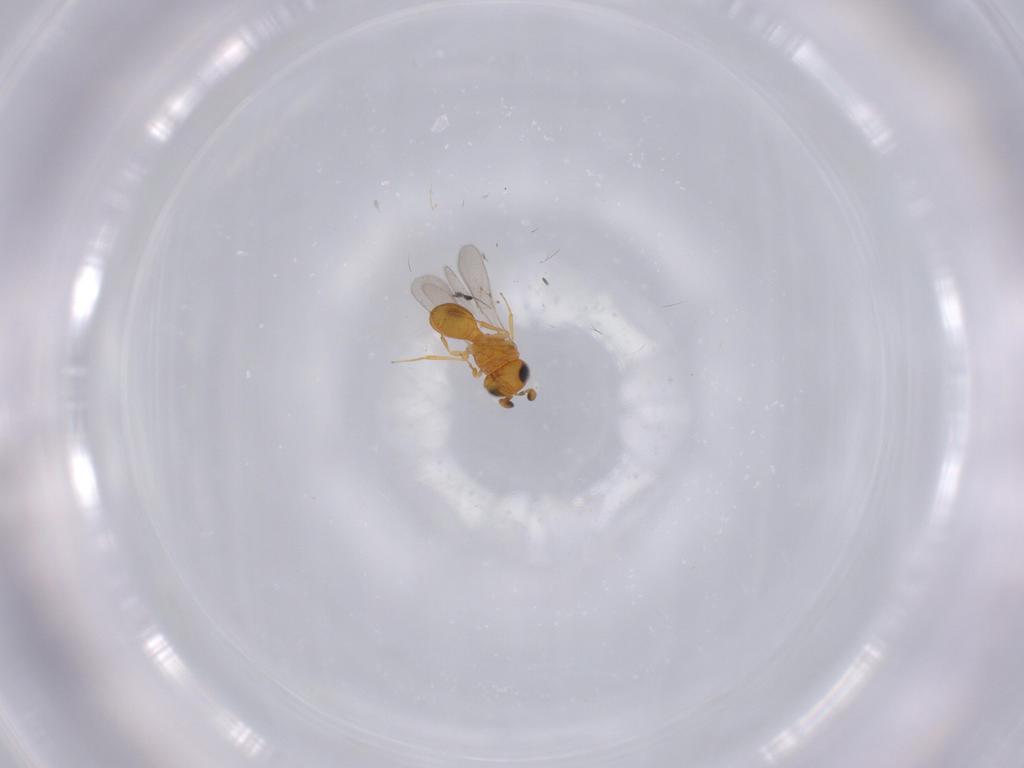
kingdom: Animalia
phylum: Arthropoda
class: Insecta
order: Hymenoptera
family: Scelionidae
